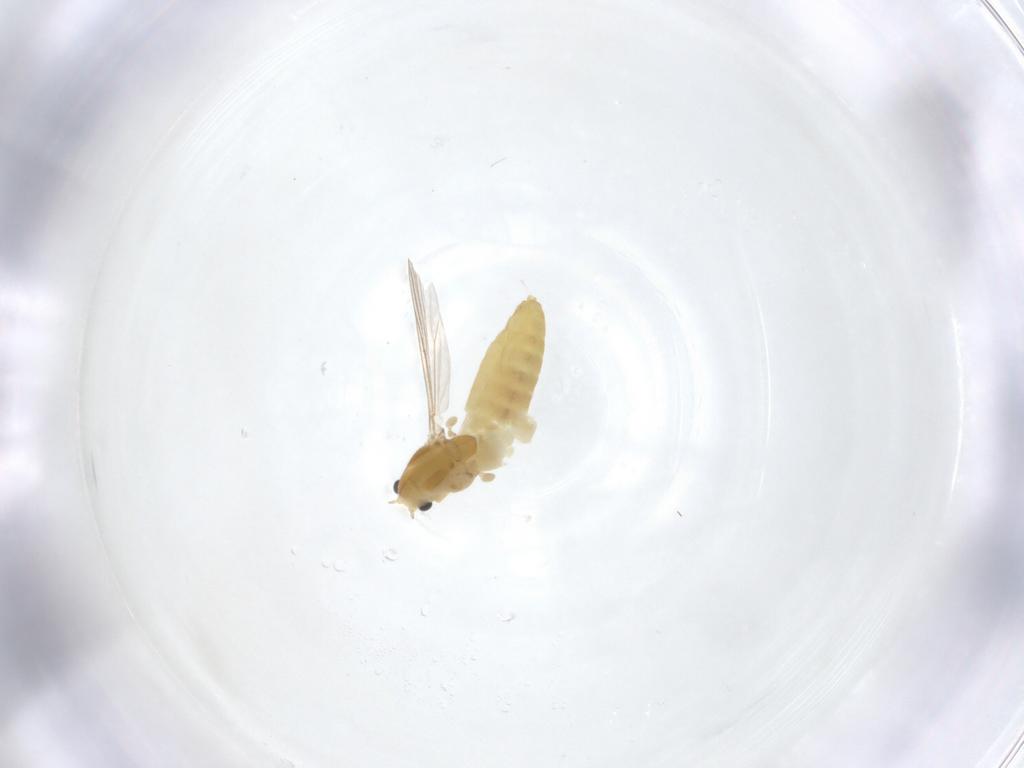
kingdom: Animalia
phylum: Arthropoda
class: Insecta
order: Diptera
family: Chironomidae
